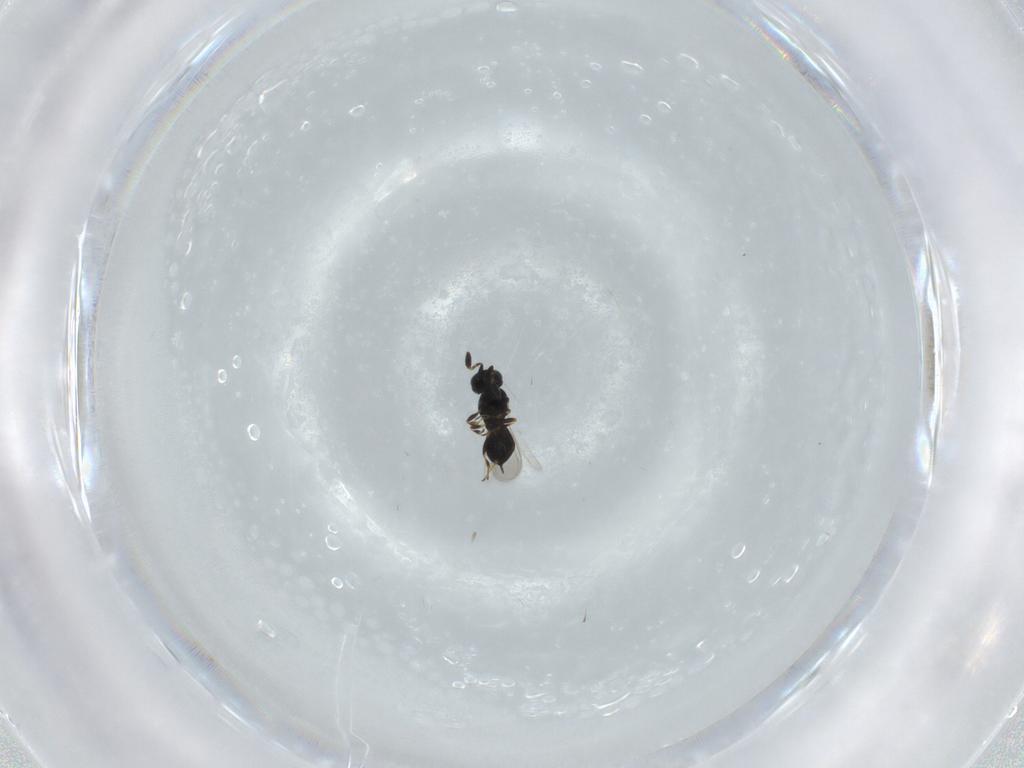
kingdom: Animalia
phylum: Arthropoda
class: Insecta
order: Hymenoptera
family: Scelionidae
